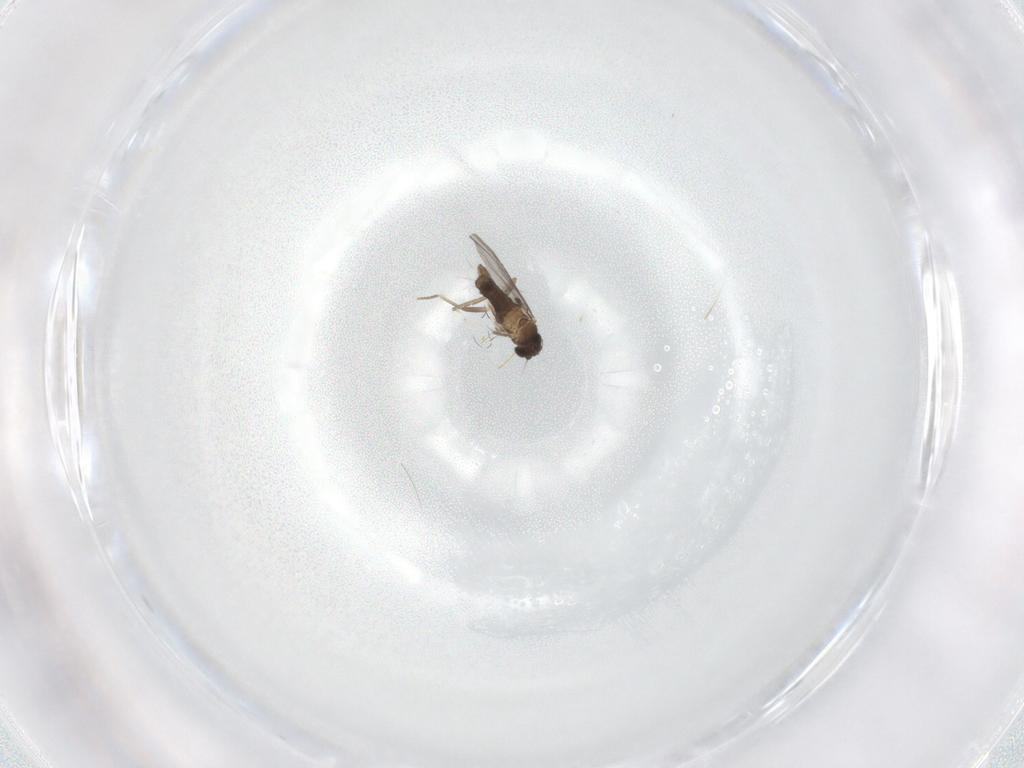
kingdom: Animalia
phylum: Arthropoda
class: Insecta
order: Diptera
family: Tabanidae
